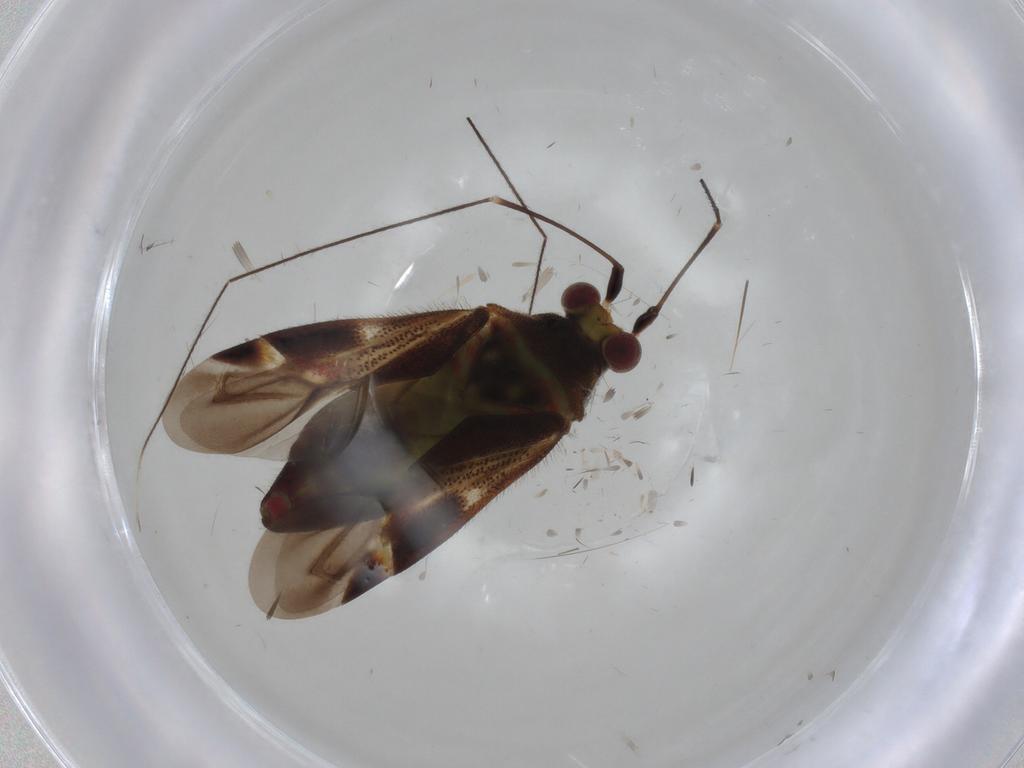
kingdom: Animalia
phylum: Arthropoda
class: Insecta
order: Hemiptera
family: Miridae
